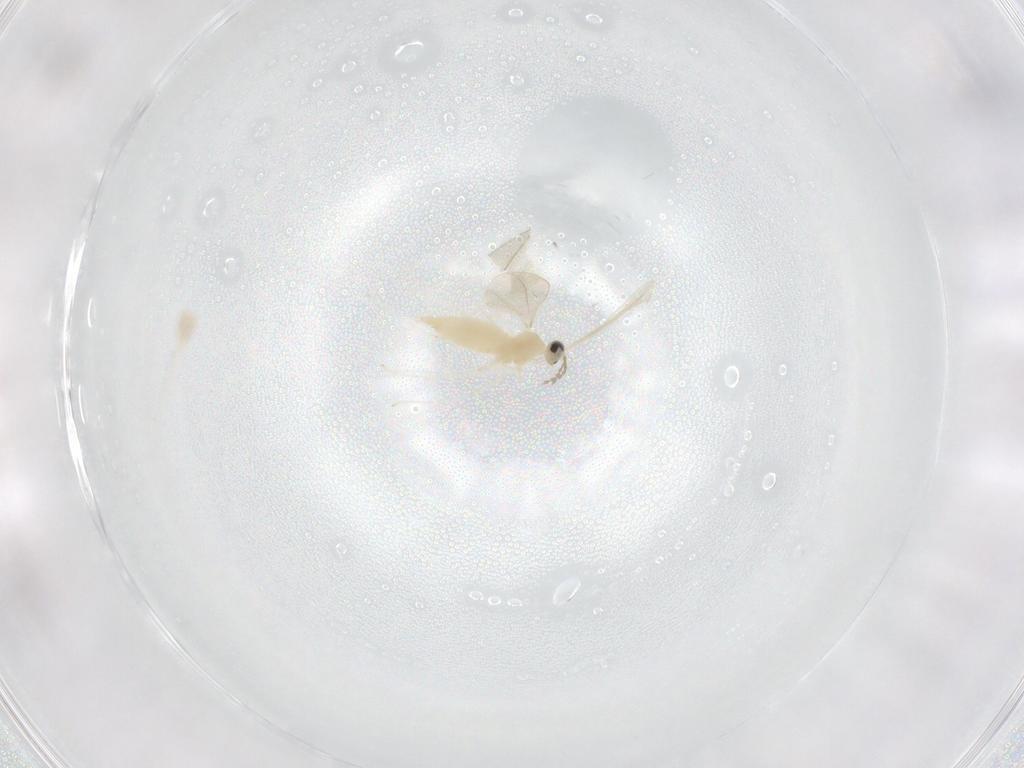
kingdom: Animalia
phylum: Arthropoda
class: Insecta
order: Diptera
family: Cecidomyiidae
